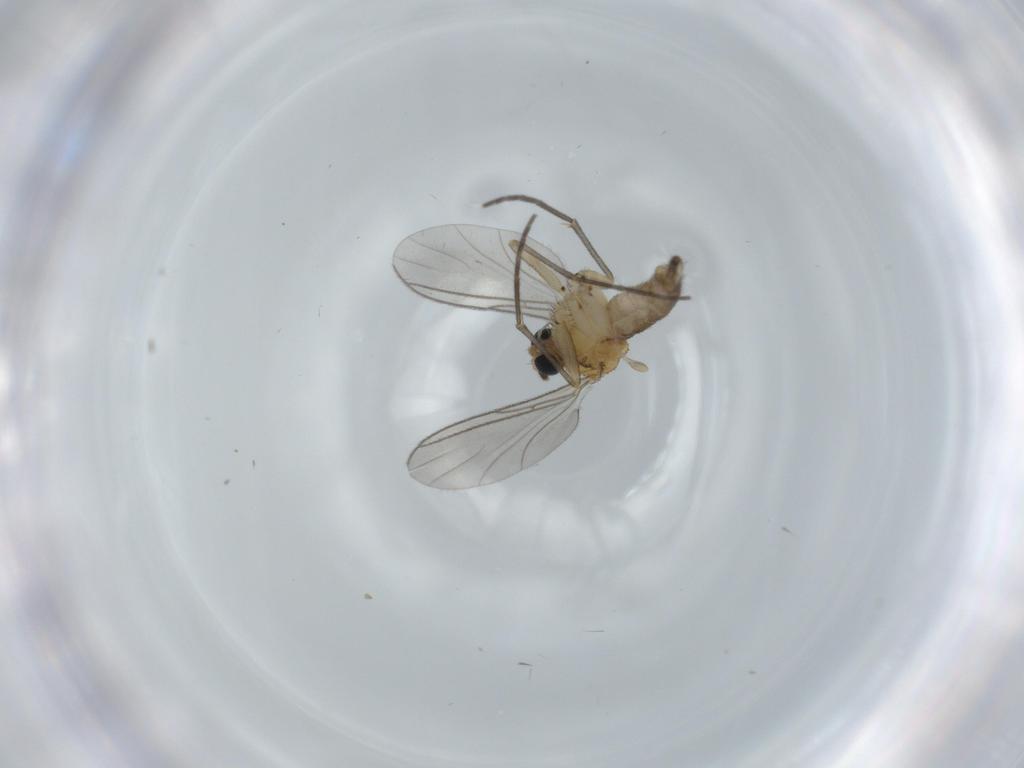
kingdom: Animalia
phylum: Arthropoda
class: Insecta
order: Diptera
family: Sciaridae
